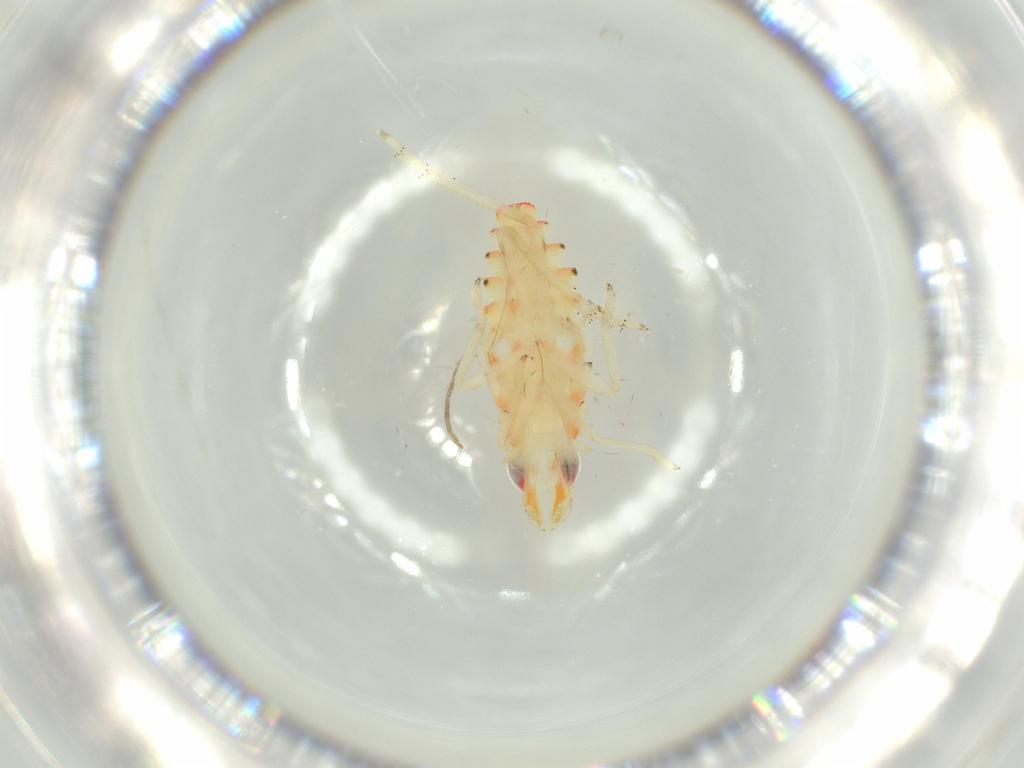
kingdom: Animalia
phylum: Arthropoda
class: Insecta
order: Hemiptera
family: Tropiduchidae
